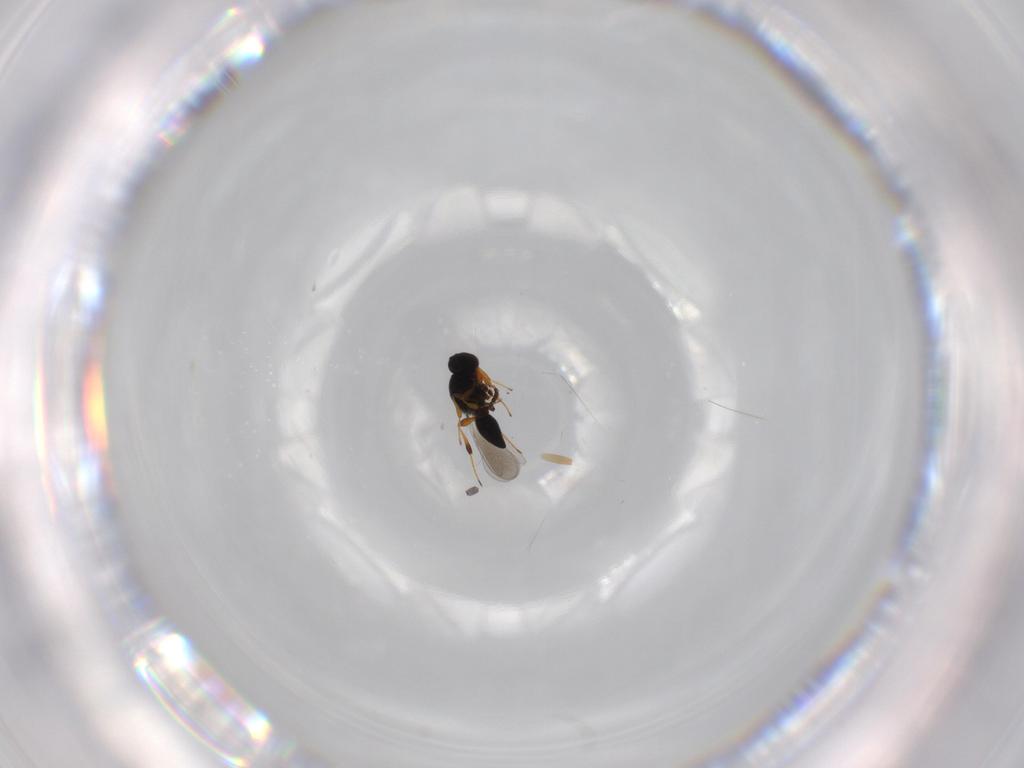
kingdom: Animalia
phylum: Arthropoda
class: Insecta
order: Hymenoptera
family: Platygastridae
